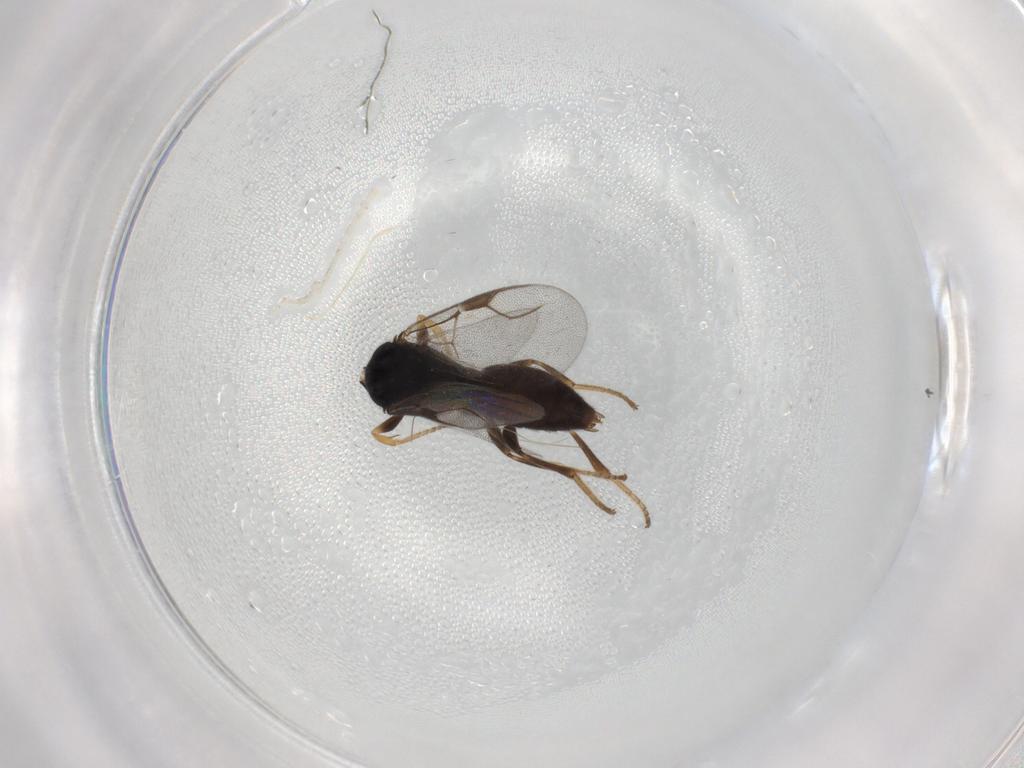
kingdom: Animalia
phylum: Arthropoda
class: Insecta
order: Hymenoptera
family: Dryinidae
